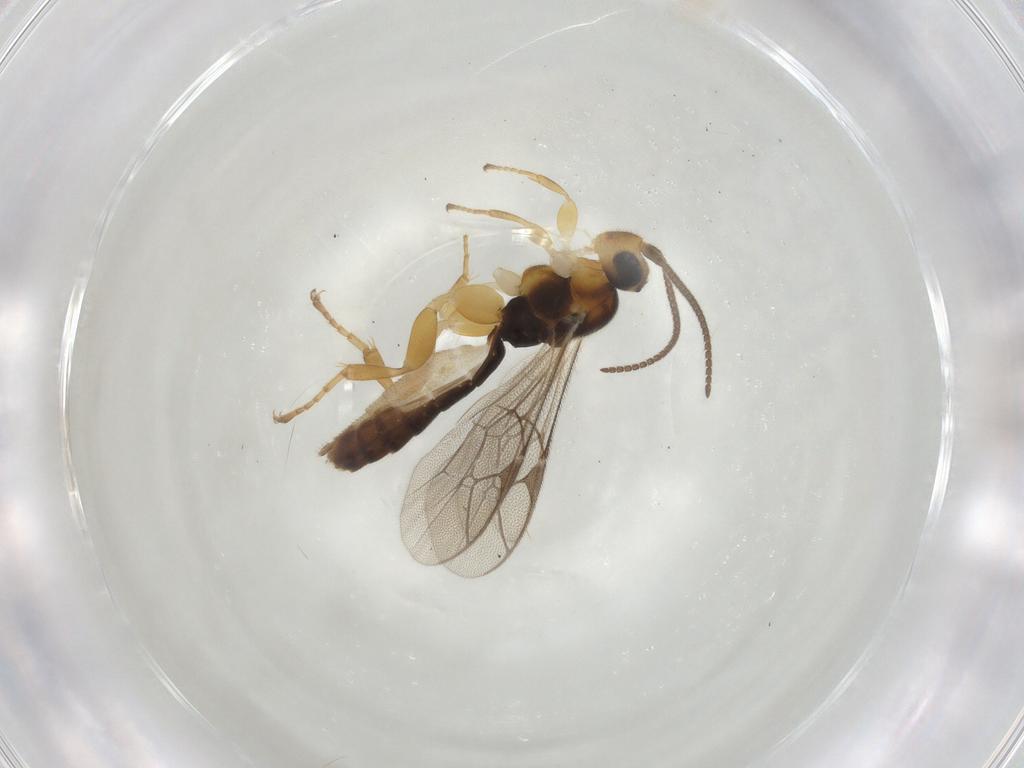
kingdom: Animalia
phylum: Arthropoda
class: Insecta
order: Hymenoptera
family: Ichneumonidae
